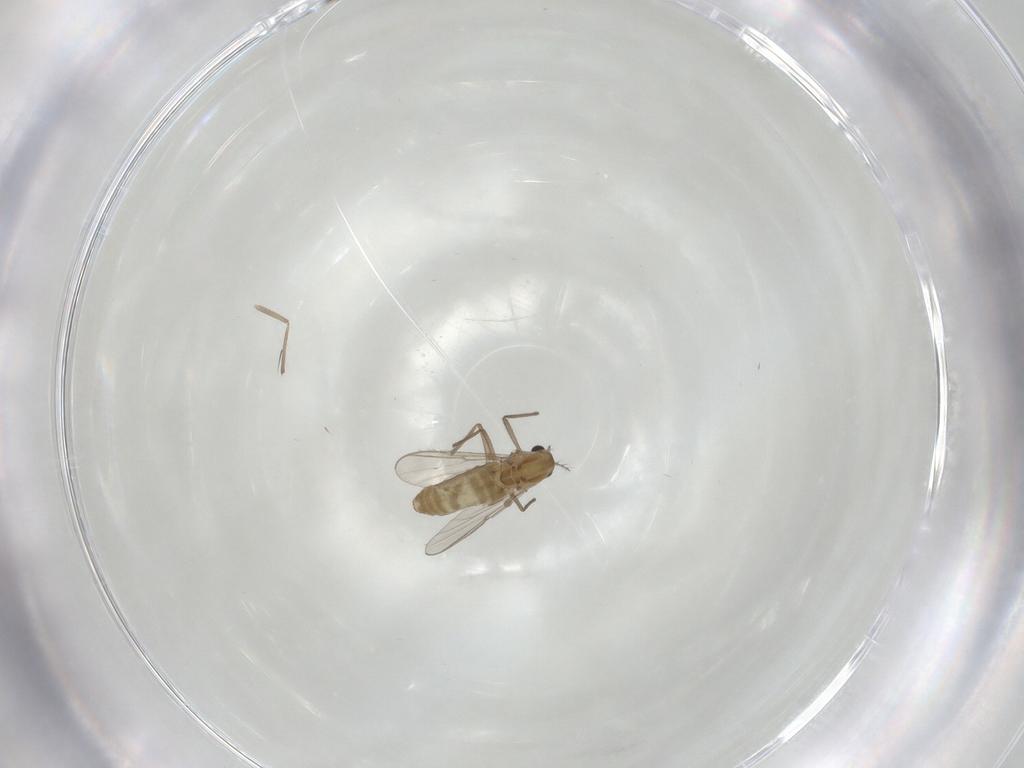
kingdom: Animalia
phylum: Arthropoda
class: Insecta
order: Diptera
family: Chironomidae
